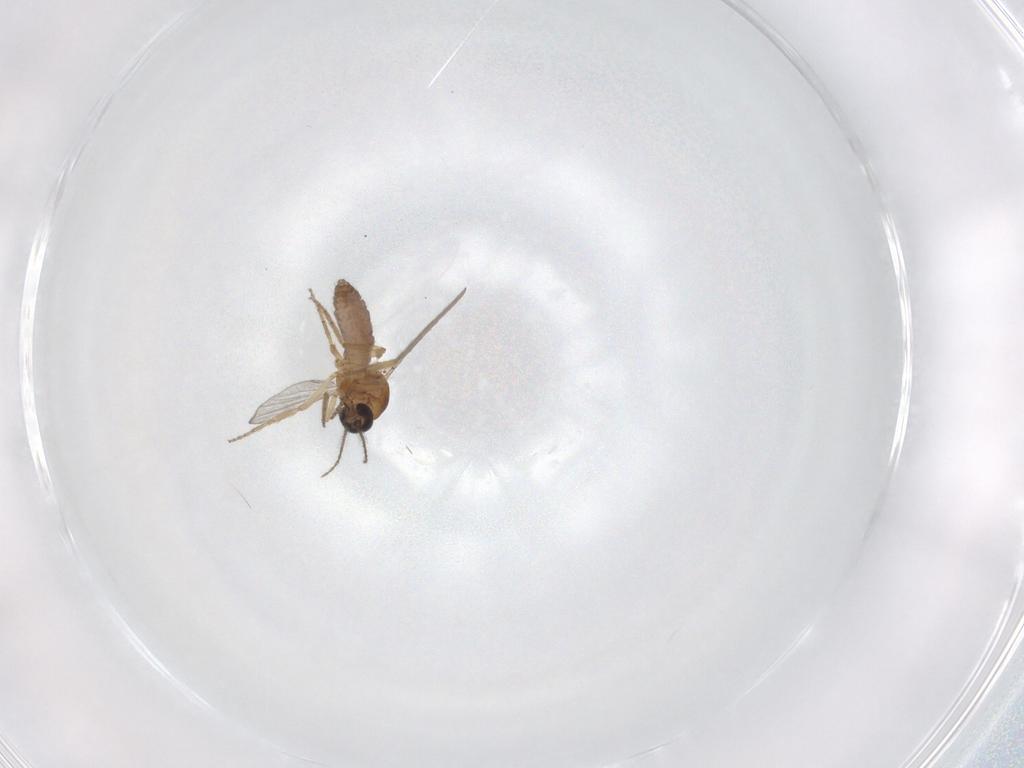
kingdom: Animalia
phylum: Arthropoda
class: Insecta
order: Diptera
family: Ceratopogonidae
